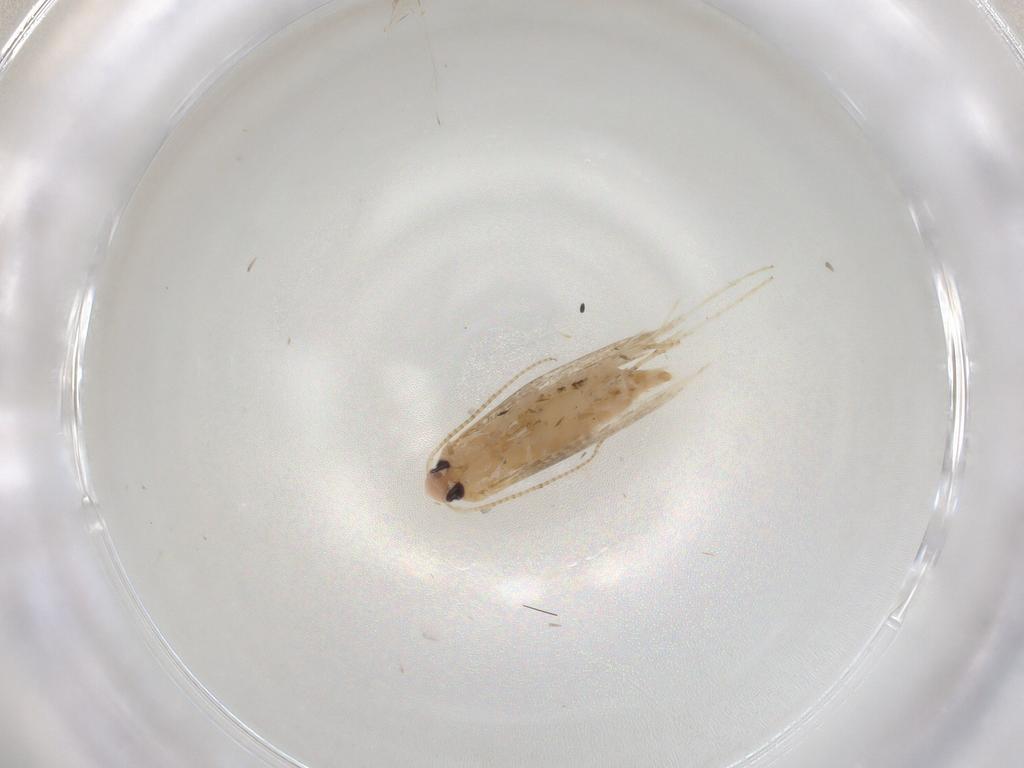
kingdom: Animalia
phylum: Arthropoda
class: Insecta
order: Lepidoptera
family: Gracillariidae
